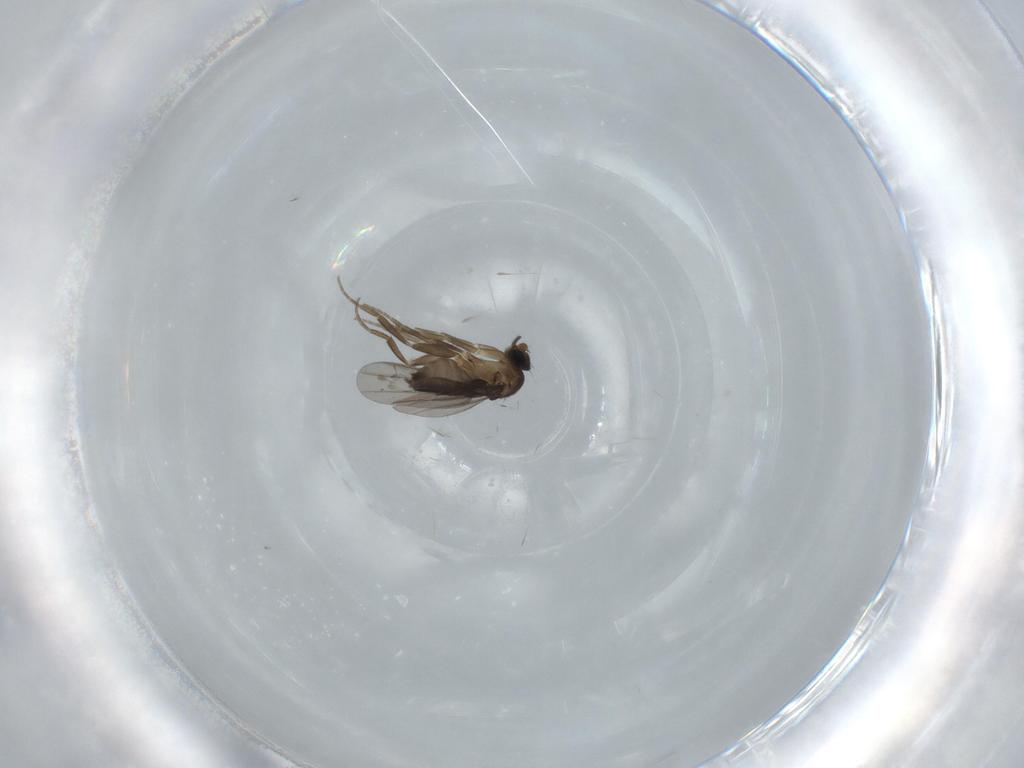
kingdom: Animalia
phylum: Arthropoda
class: Insecta
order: Diptera
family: Phoridae
